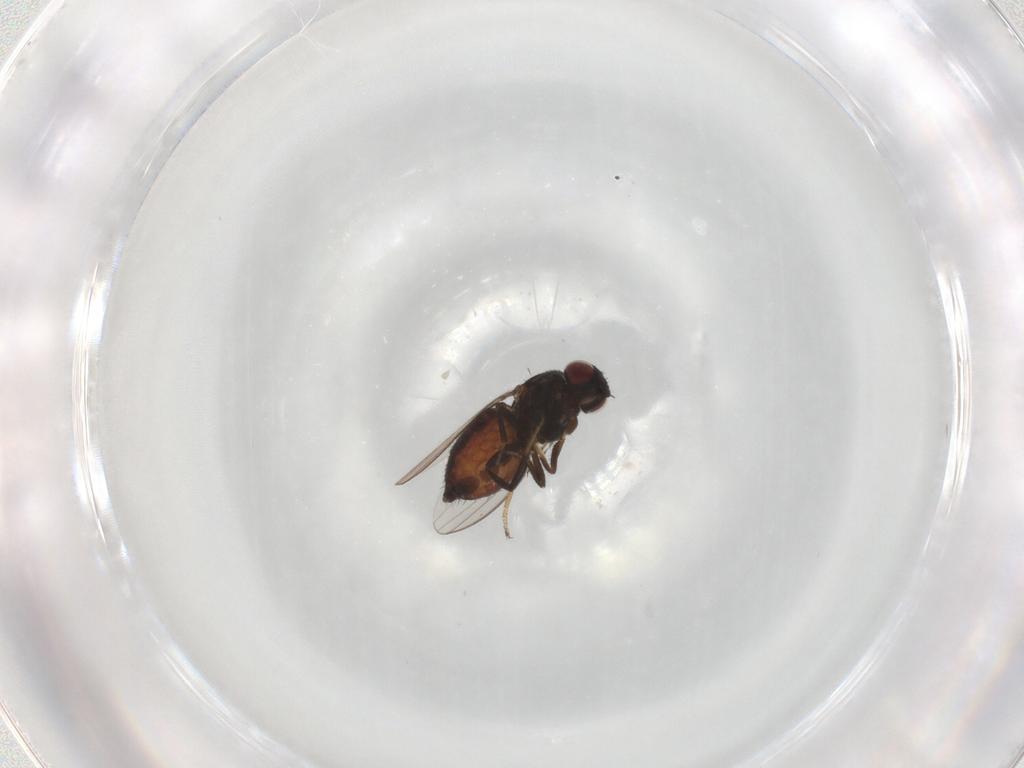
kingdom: Animalia
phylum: Arthropoda
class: Insecta
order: Diptera
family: Milichiidae
